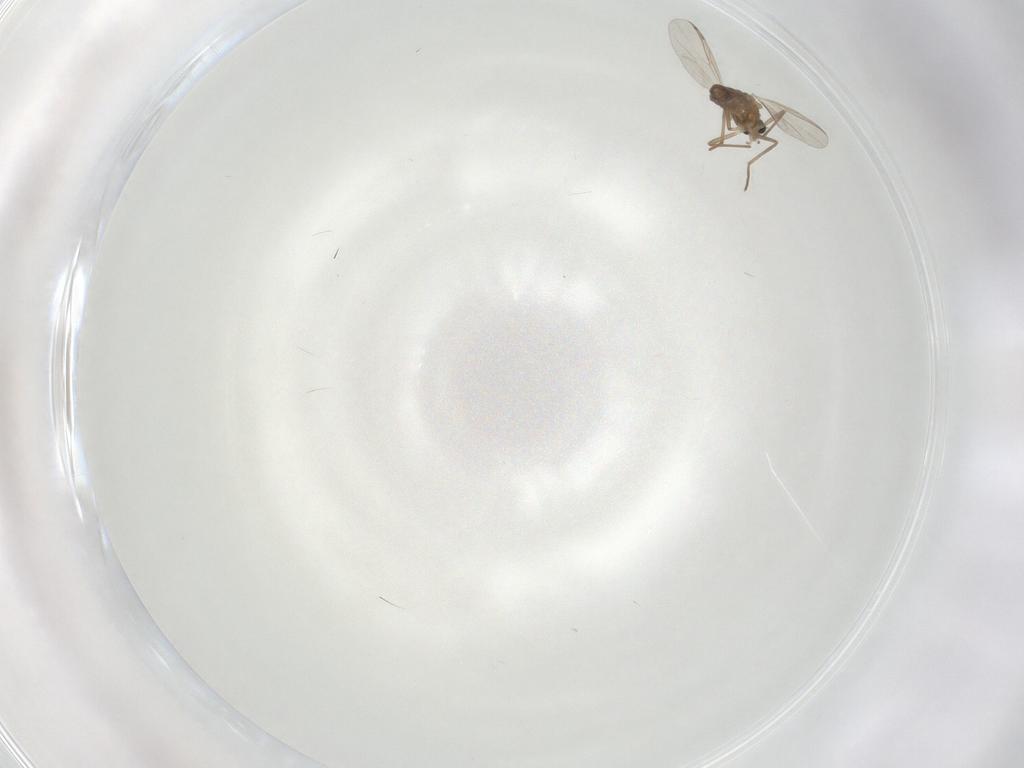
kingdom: Animalia
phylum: Arthropoda
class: Insecta
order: Diptera
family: Chironomidae
